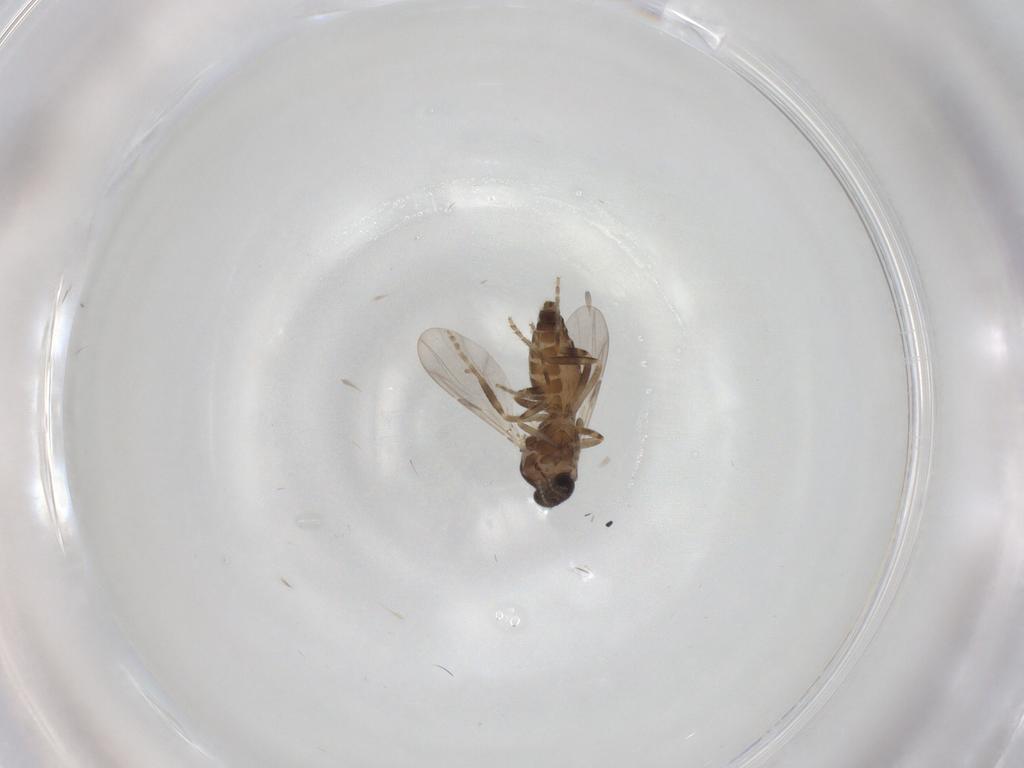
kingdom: Animalia
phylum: Arthropoda
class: Insecta
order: Diptera
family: Ceratopogonidae
